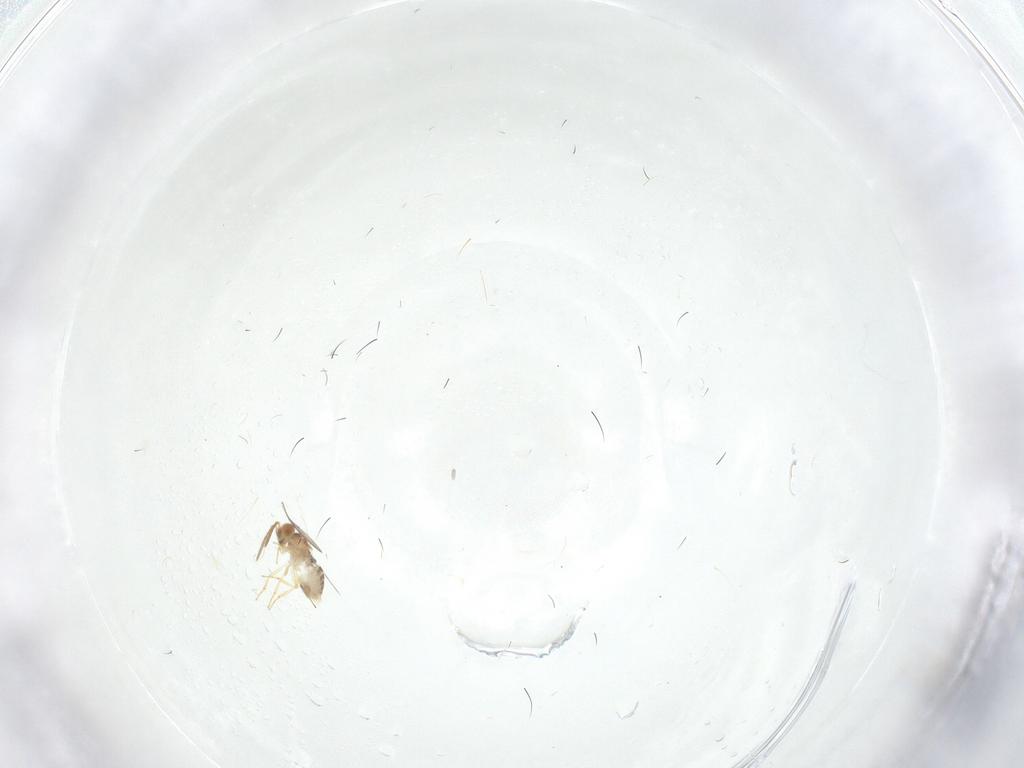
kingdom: Animalia
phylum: Arthropoda
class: Insecta
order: Hymenoptera
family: Aphelinidae
